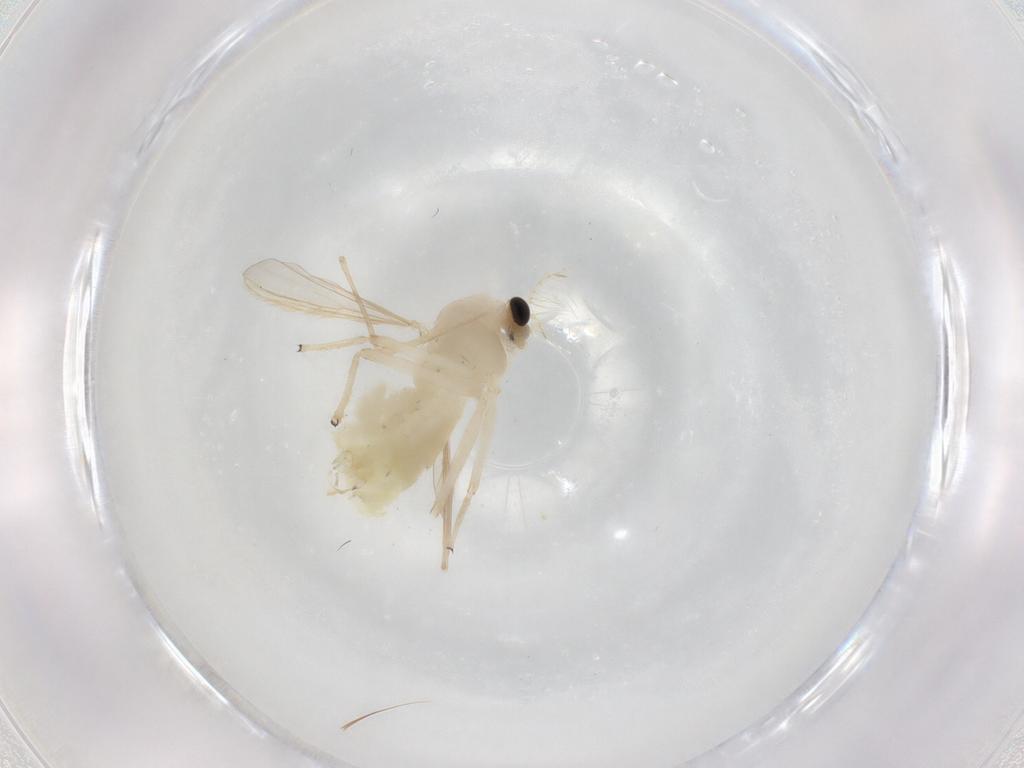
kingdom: Animalia
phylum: Arthropoda
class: Insecta
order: Diptera
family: Chironomidae
